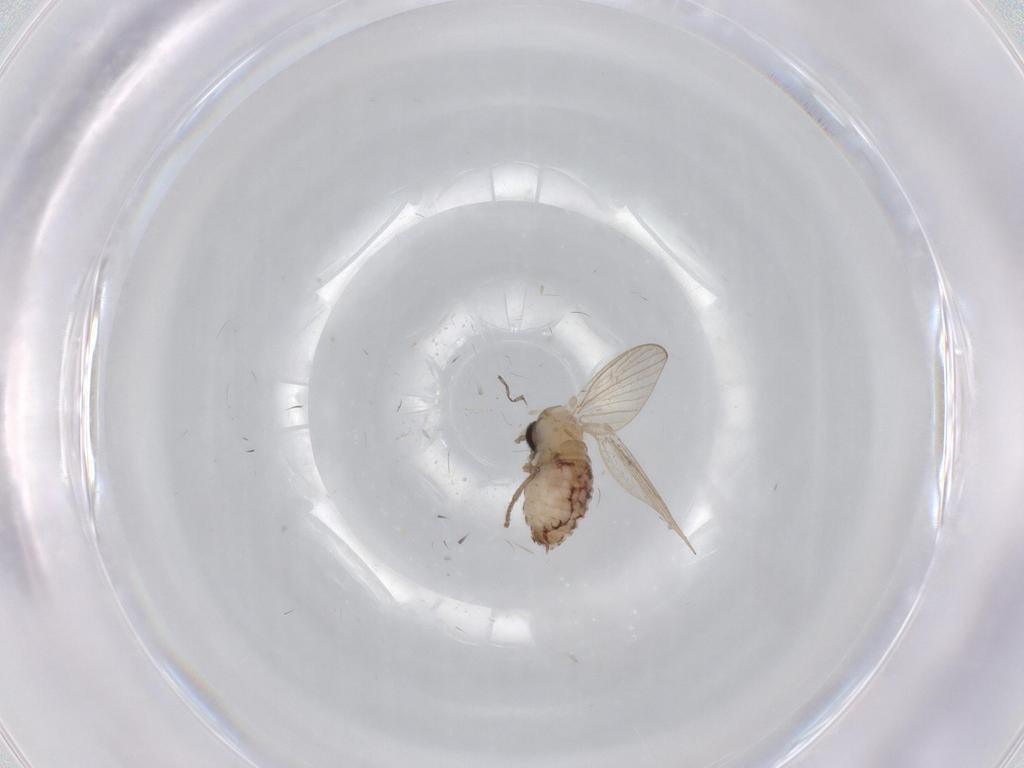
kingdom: Animalia
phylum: Arthropoda
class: Insecta
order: Diptera
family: Psychodidae
